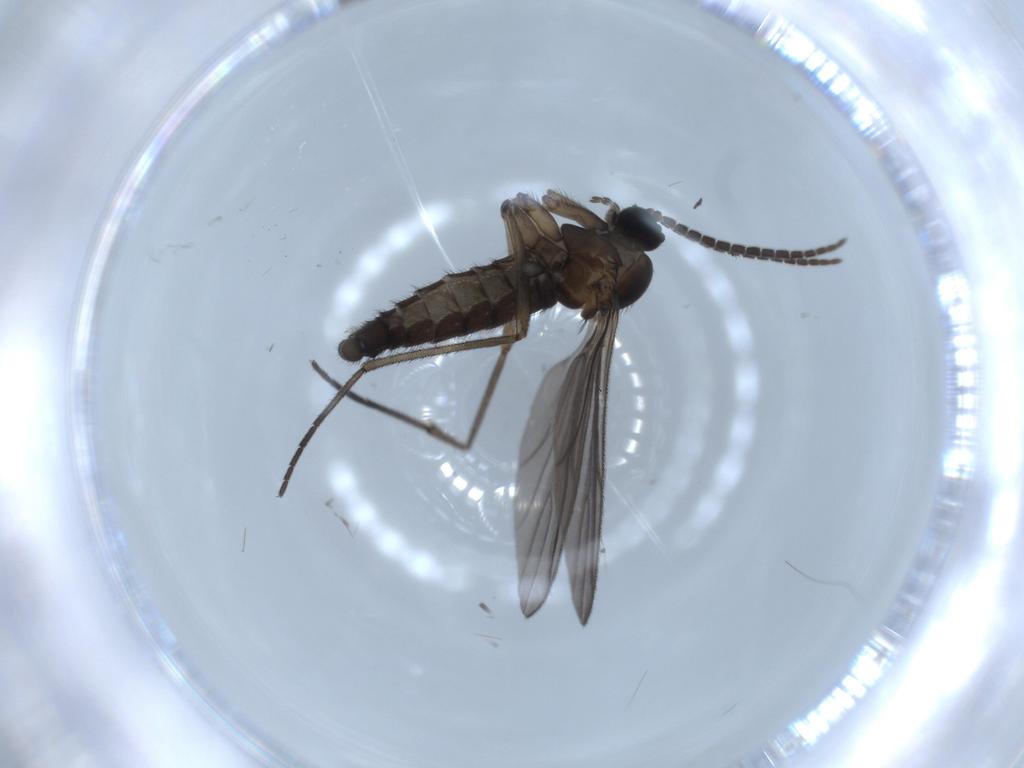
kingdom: Animalia
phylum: Arthropoda
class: Insecta
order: Diptera
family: Sciaridae
